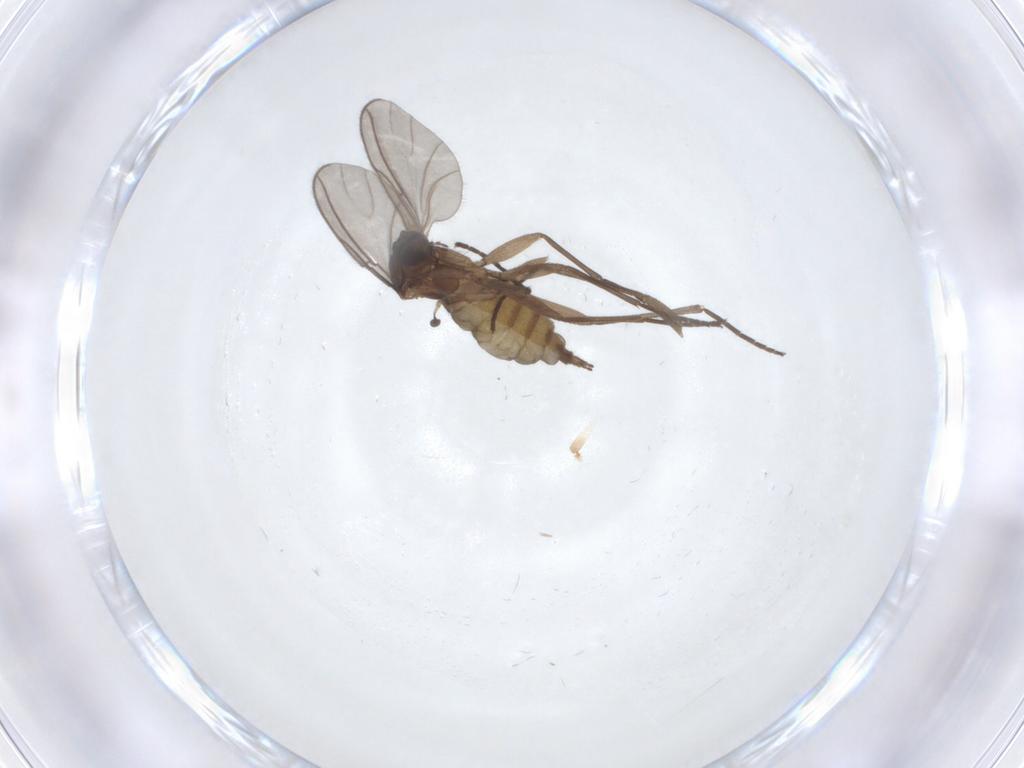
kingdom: Animalia
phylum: Arthropoda
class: Insecta
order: Diptera
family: Sciaridae
